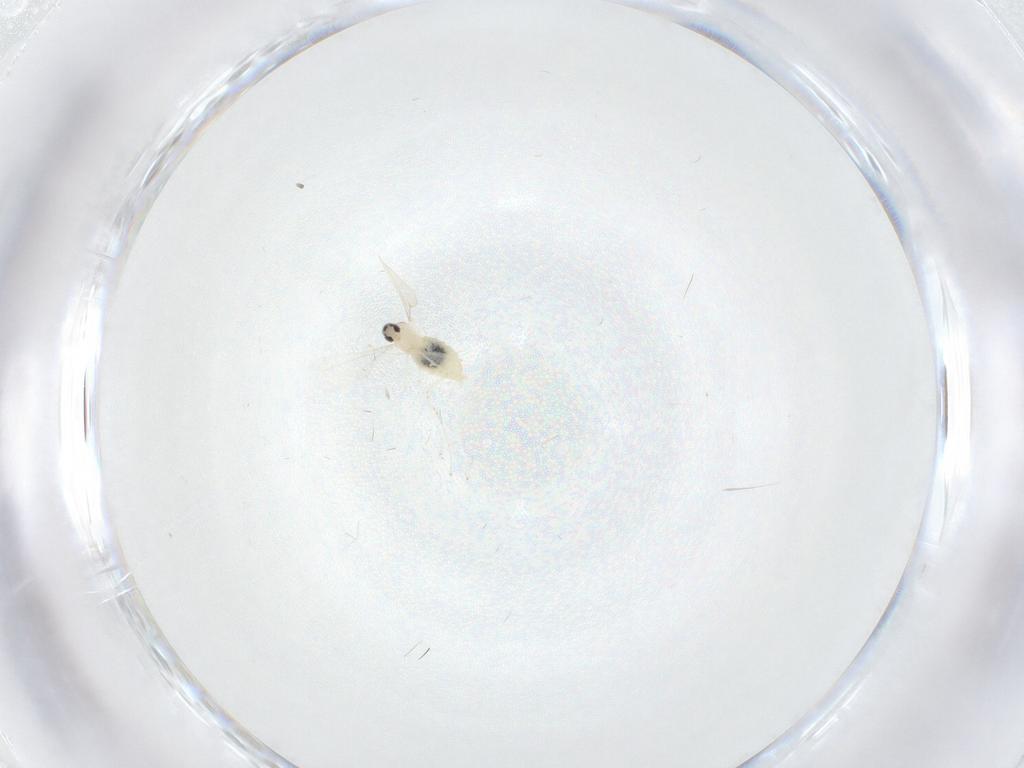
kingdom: Animalia
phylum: Arthropoda
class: Insecta
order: Diptera
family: Chironomidae
